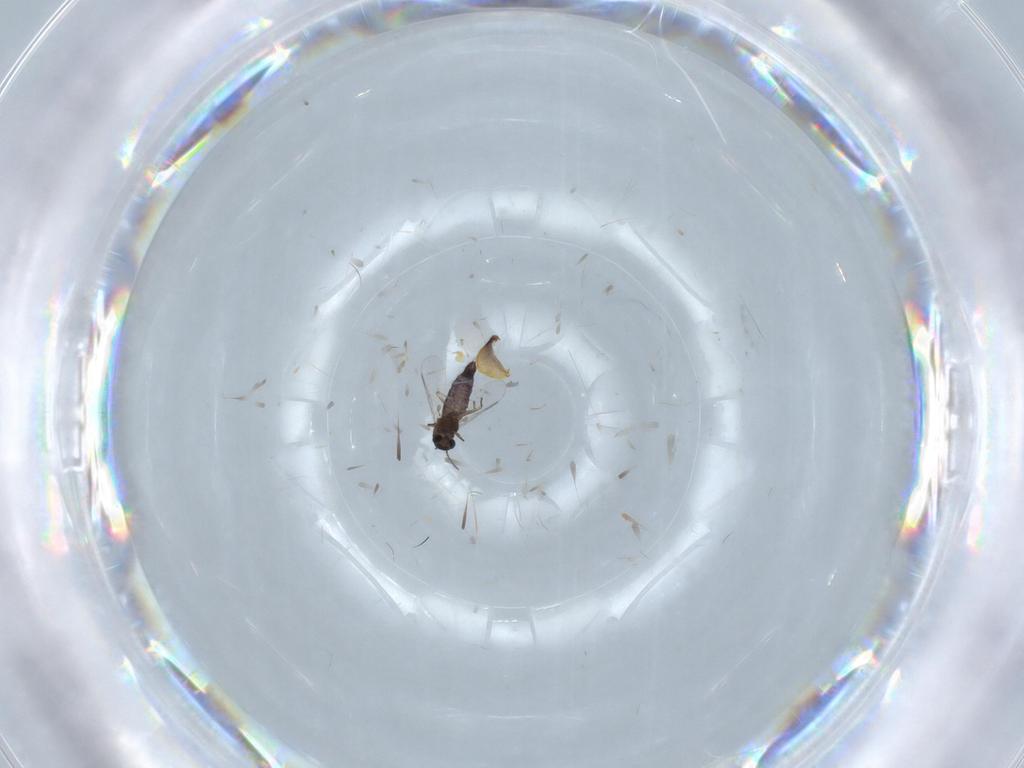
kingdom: Animalia
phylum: Arthropoda
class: Insecta
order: Diptera
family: Chironomidae
